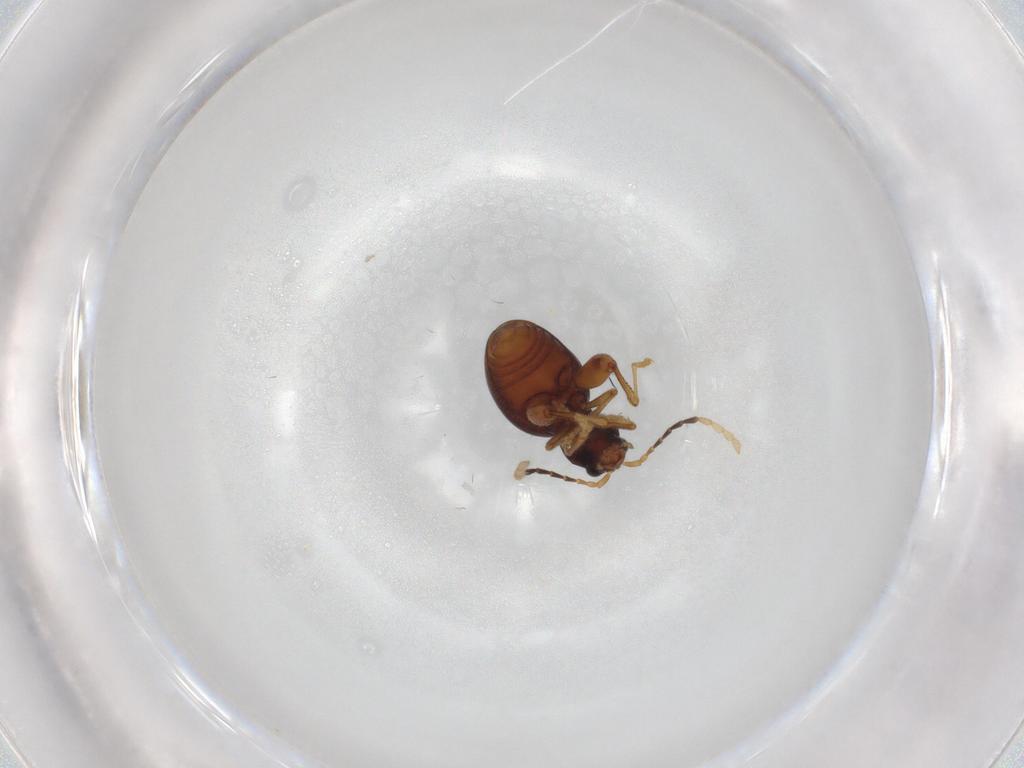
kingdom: Animalia
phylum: Arthropoda
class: Insecta
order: Coleoptera
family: Chrysomelidae
